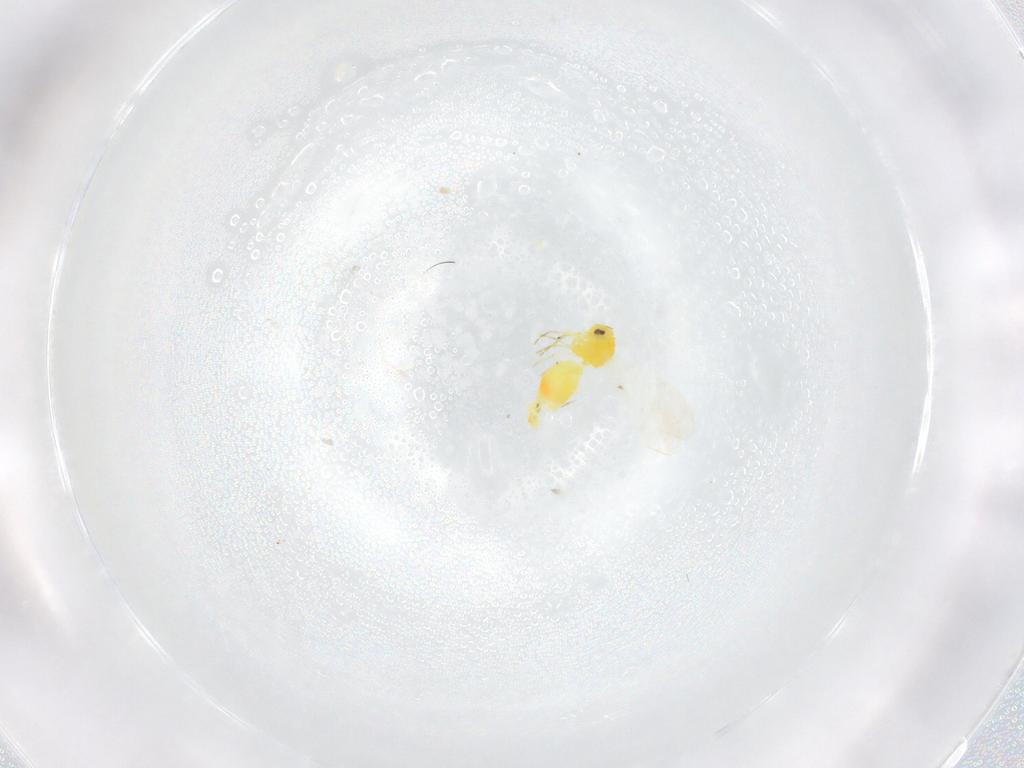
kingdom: Animalia
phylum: Arthropoda
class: Insecta
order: Hemiptera
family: Aleyrodidae
